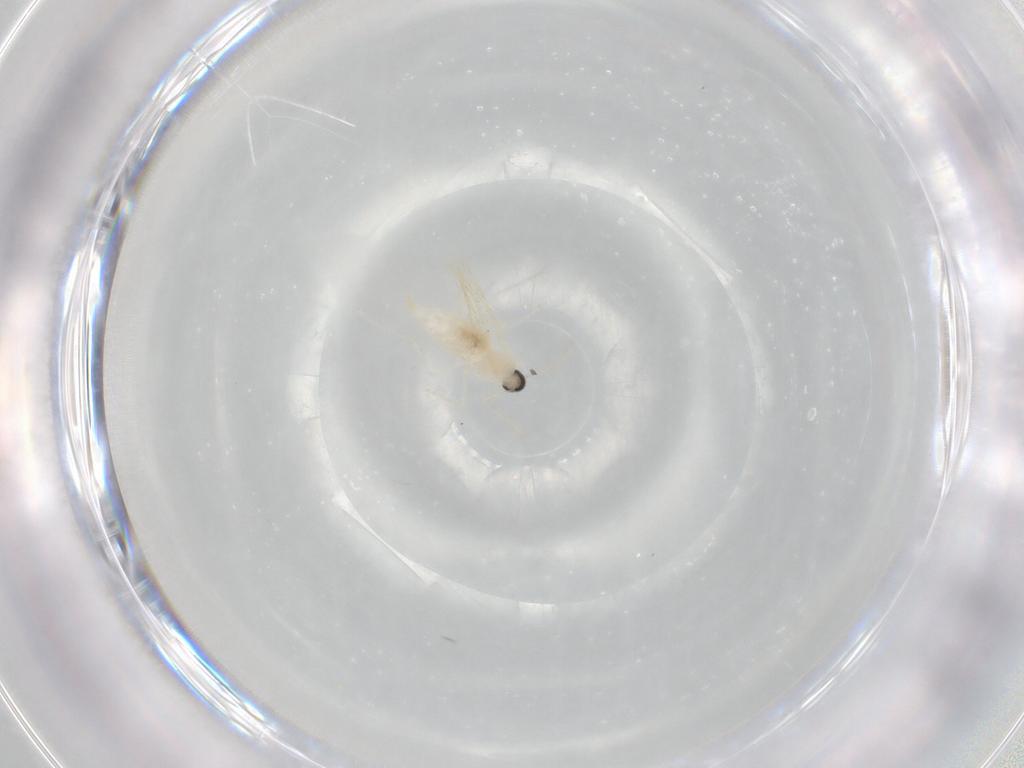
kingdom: Animalia
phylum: Arthropoda
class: Insecta
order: Diptera
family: Cecidomyiidae
